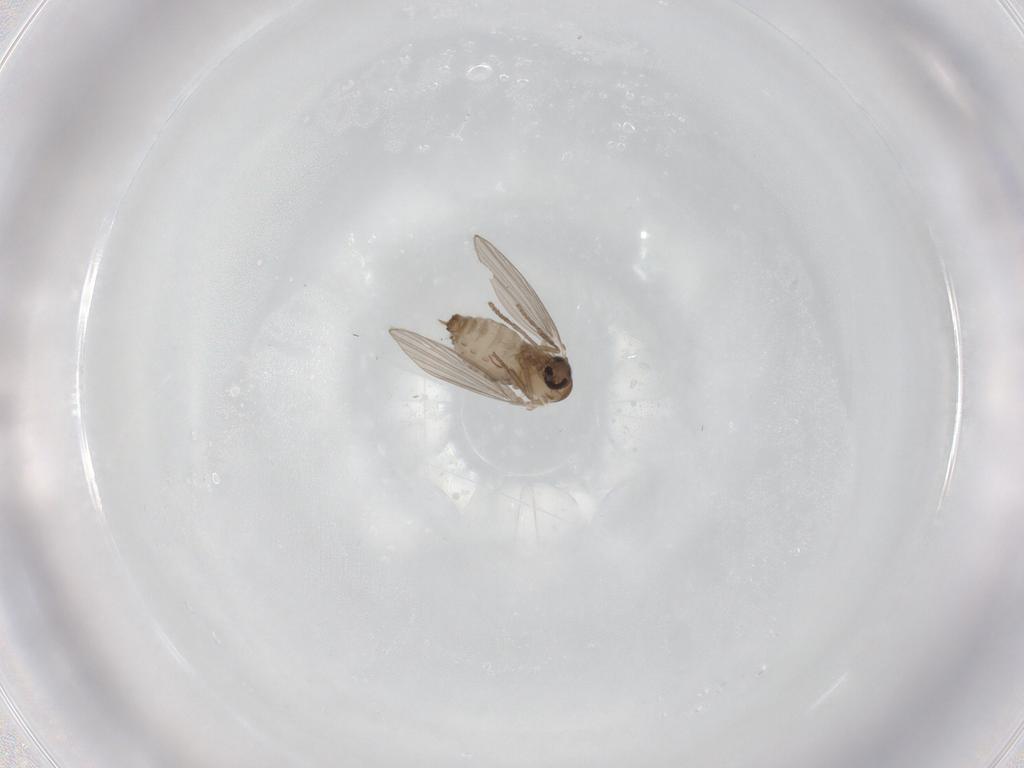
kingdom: Animalia
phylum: Arthropoda
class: Insecta
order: Diptera
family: Psychodidae
